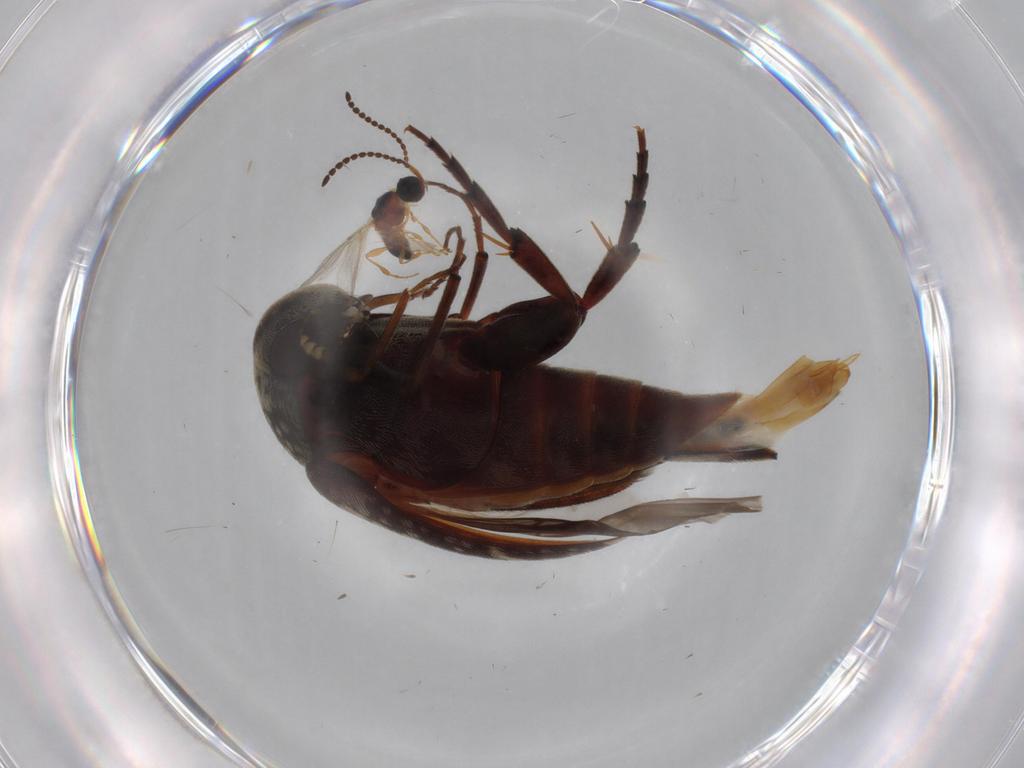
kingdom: Animalia
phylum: Arthropoda
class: Insecta
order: Hymenoptera
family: Diapriidae
